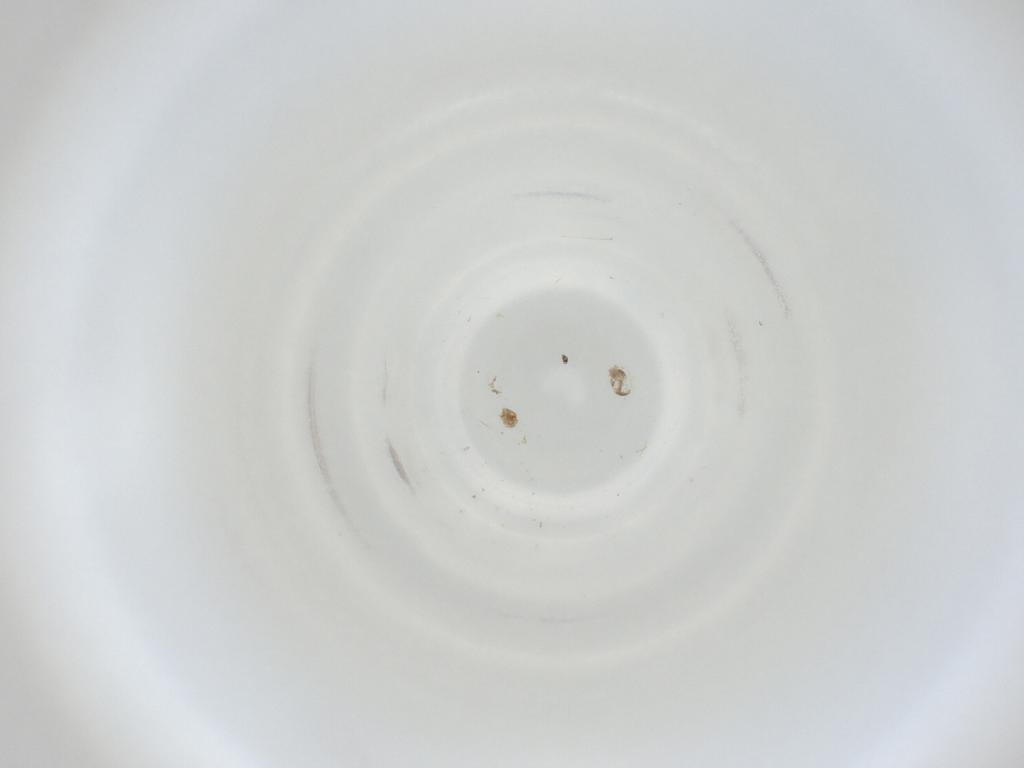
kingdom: Animalia
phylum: Arthropoda
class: Insecta
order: Diptera
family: Cecidomyiidae
